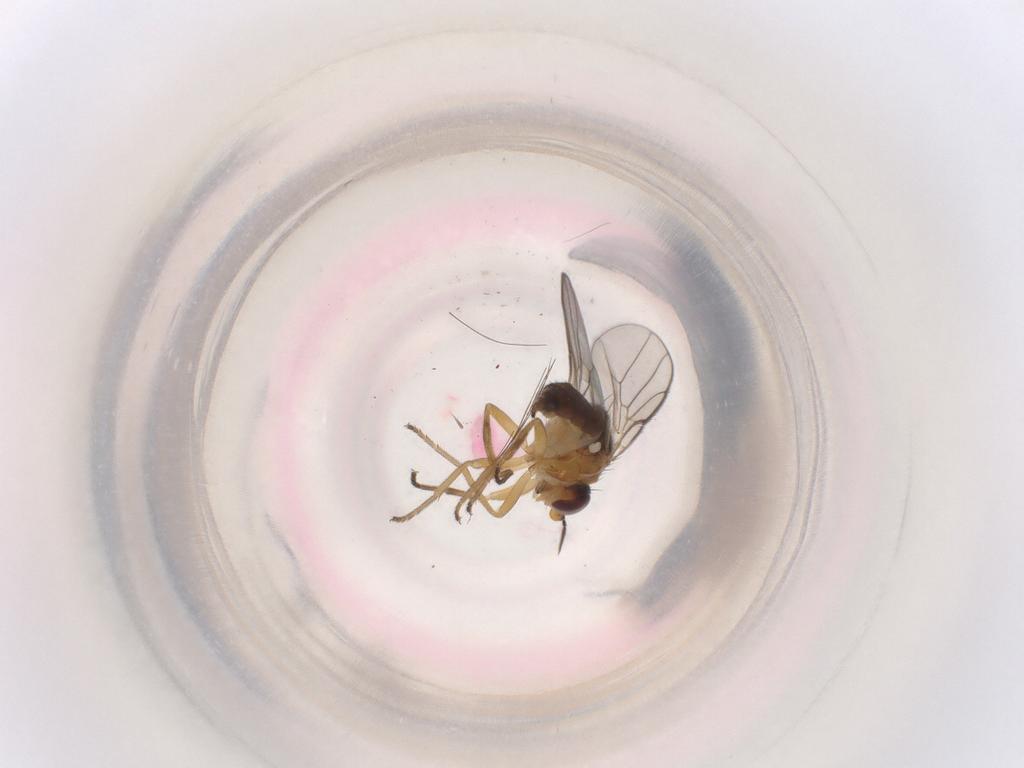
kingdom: Animalia
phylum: Arthropoda
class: Insecta
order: Diptera
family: Chloropidae
